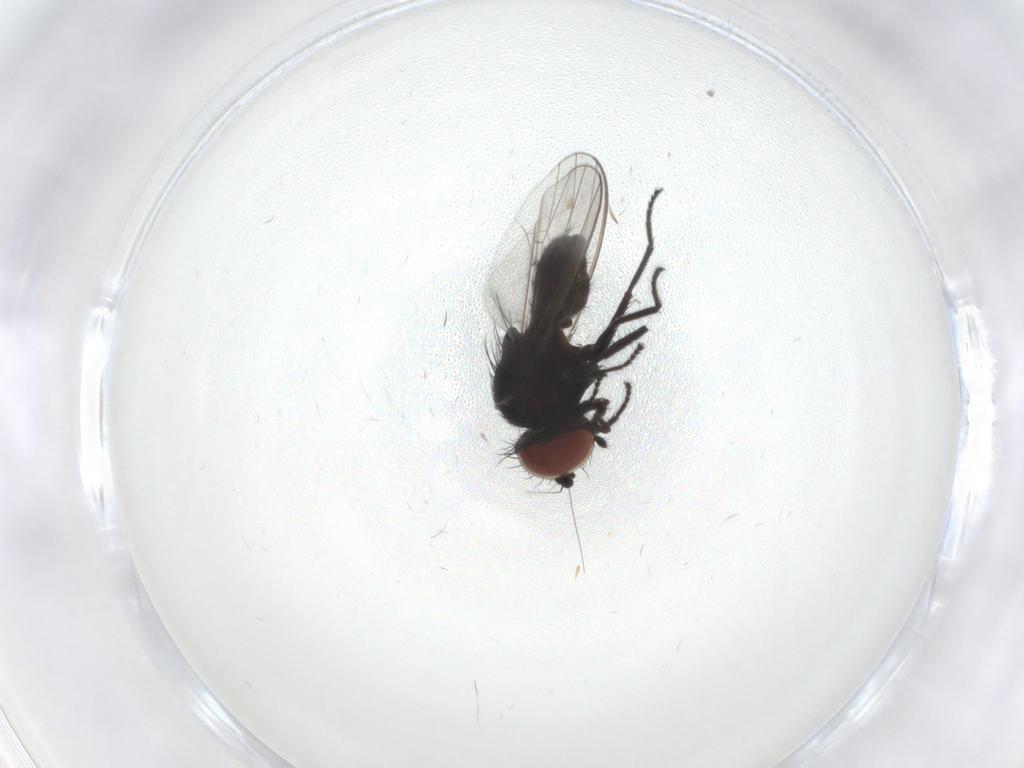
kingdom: Animalia
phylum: Arthropoda
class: Insecta
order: Diptera
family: Milichiidae
